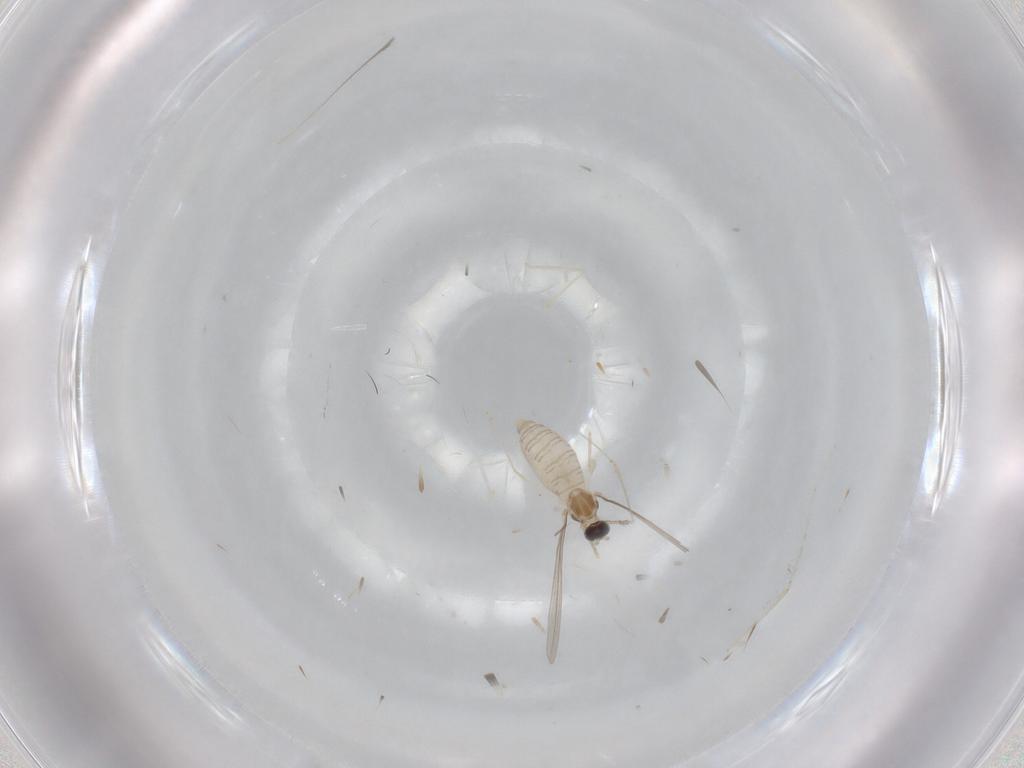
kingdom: Animalia
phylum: Arthropoda
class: Insecta
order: Diptera
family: Cecidomyiidae
